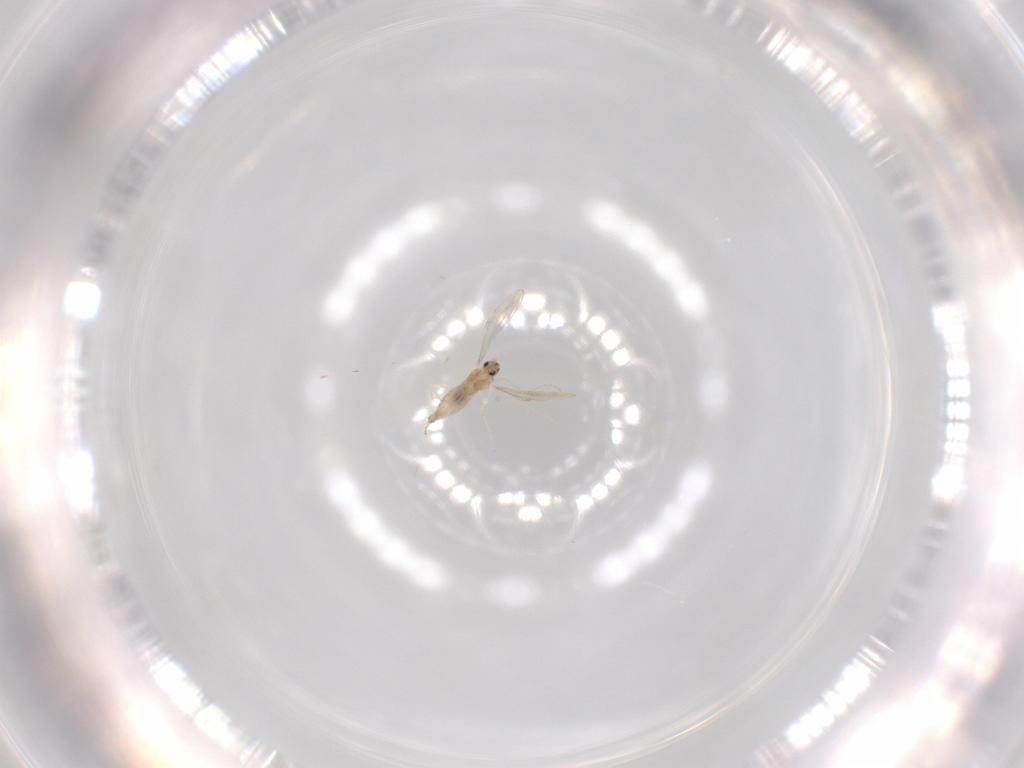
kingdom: Animalia
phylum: Arthropoda
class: Insecta
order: Diptera
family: Cecidomyiidae
